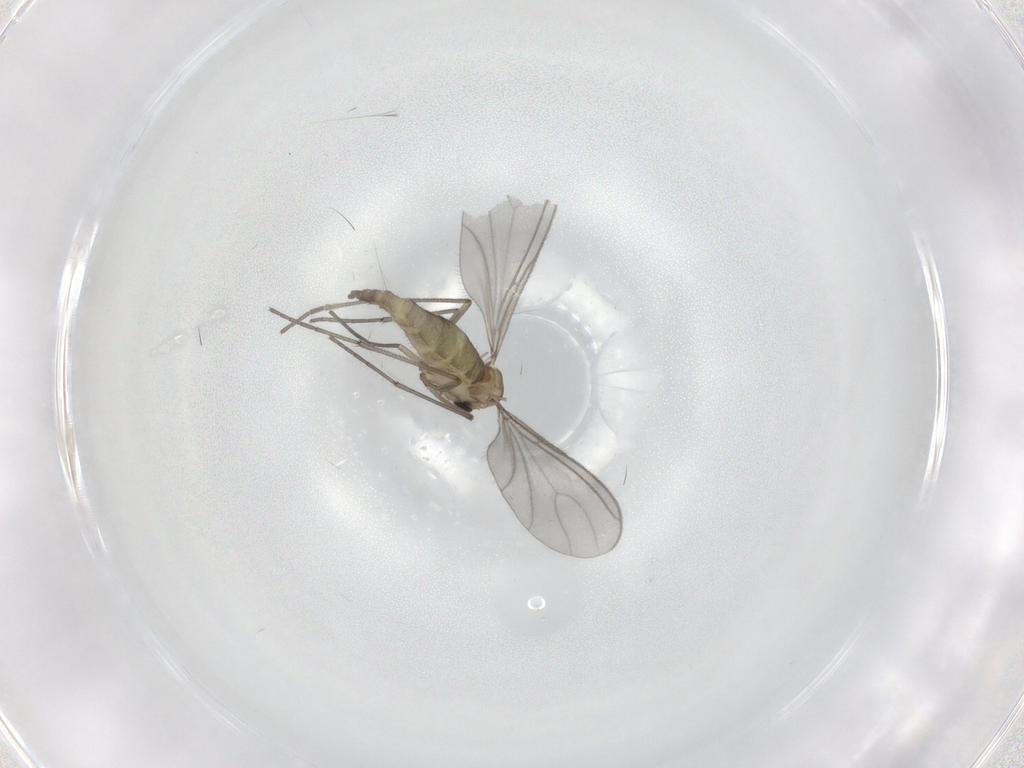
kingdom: Animalia
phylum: Arthropoda
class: Insecta
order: Diptera
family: Sciaridae
